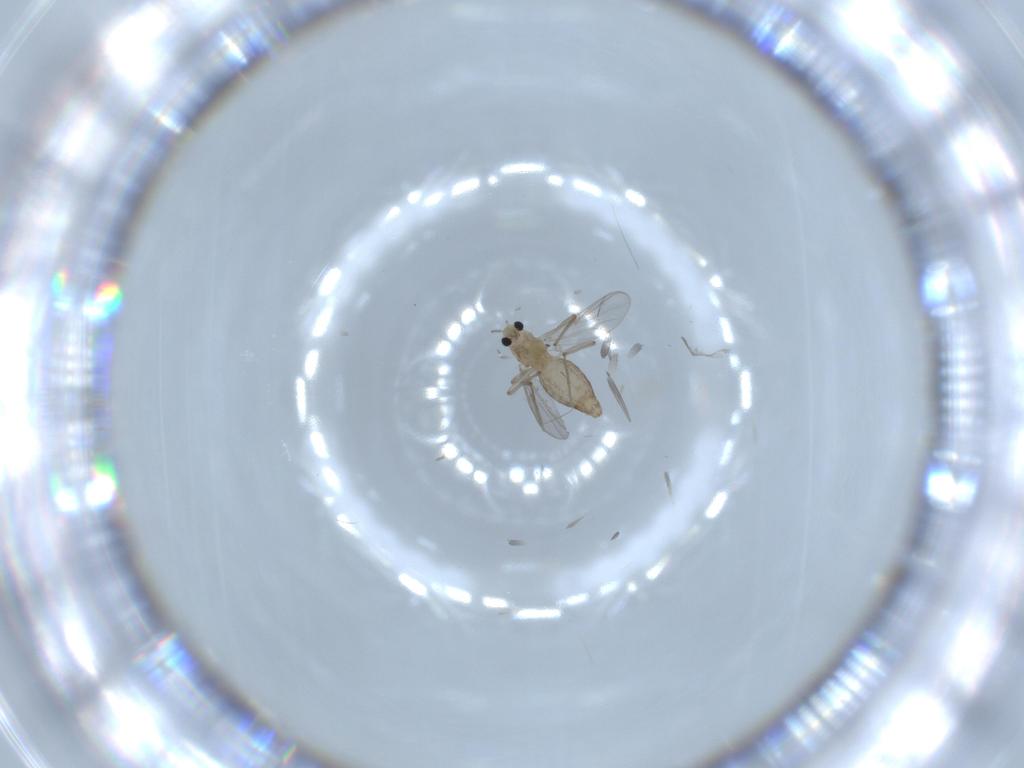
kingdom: Animalia
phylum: Arthropoda
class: Insecta
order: Diptera
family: Chironomidae
